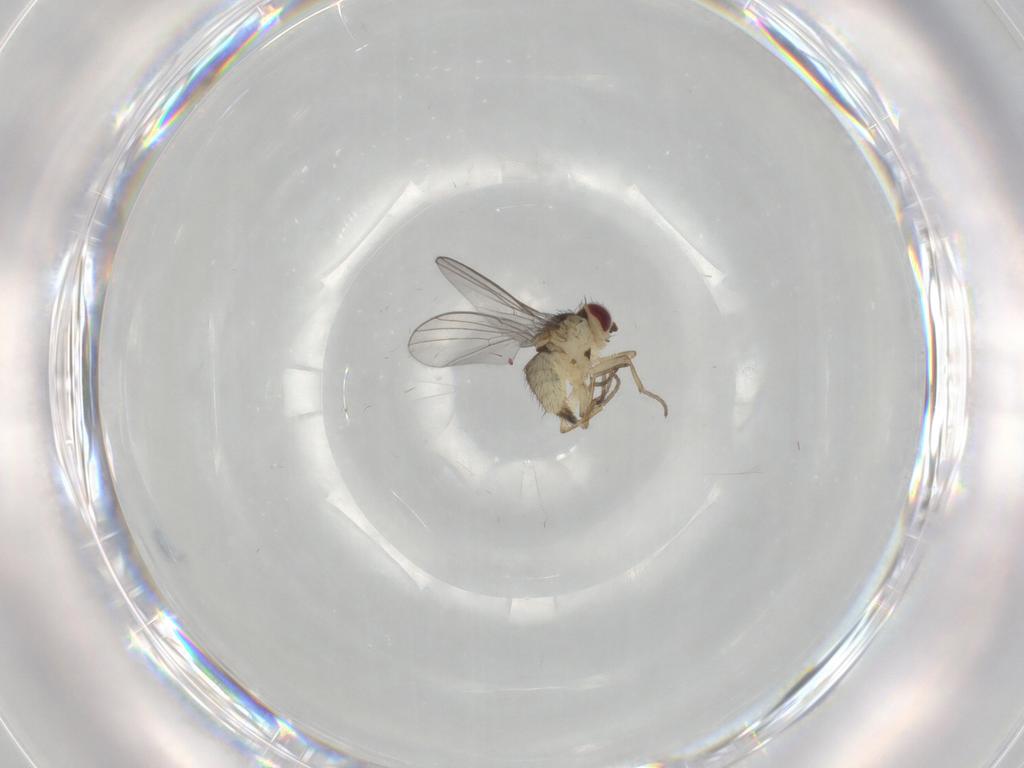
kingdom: Animalia
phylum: Arthropoda
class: Insecta
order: Diptera
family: Agromyzidae
